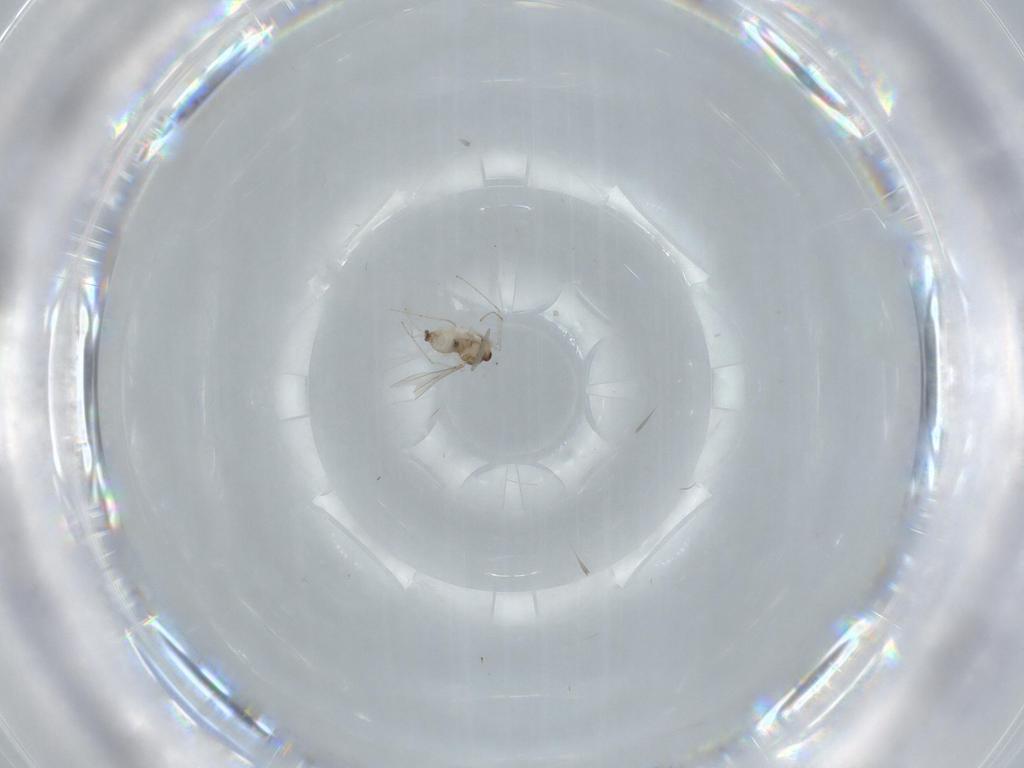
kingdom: Animalia
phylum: Arthropoda
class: Insecta
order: Diptera
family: Cecidomyiidae
